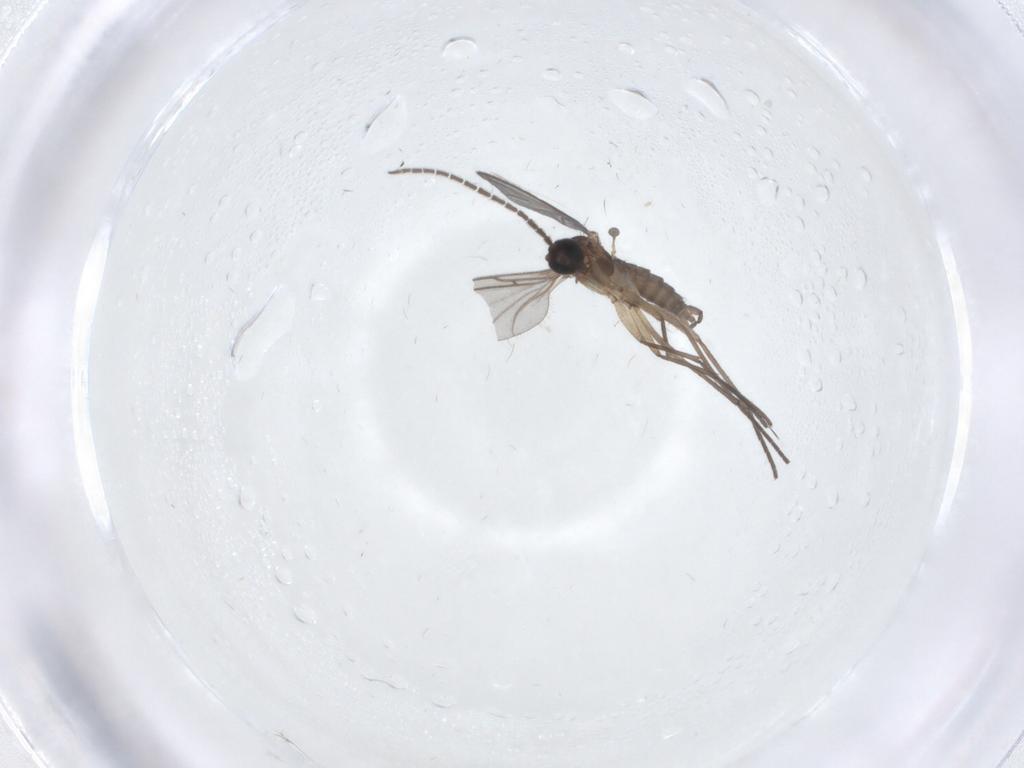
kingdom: Animalia
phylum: Arthropoda
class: Insecta
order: Diptera
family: Sciaridae
